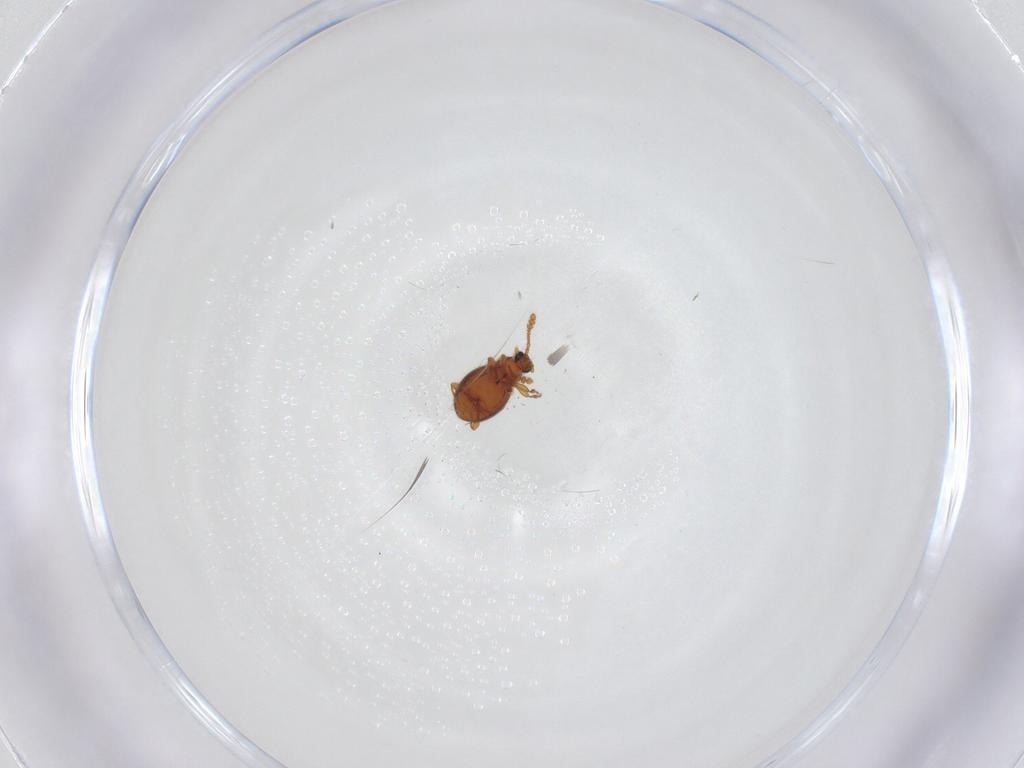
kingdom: Animalia
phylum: Arthropoda
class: Insecta
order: Coleoptera
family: Staphylinidae
